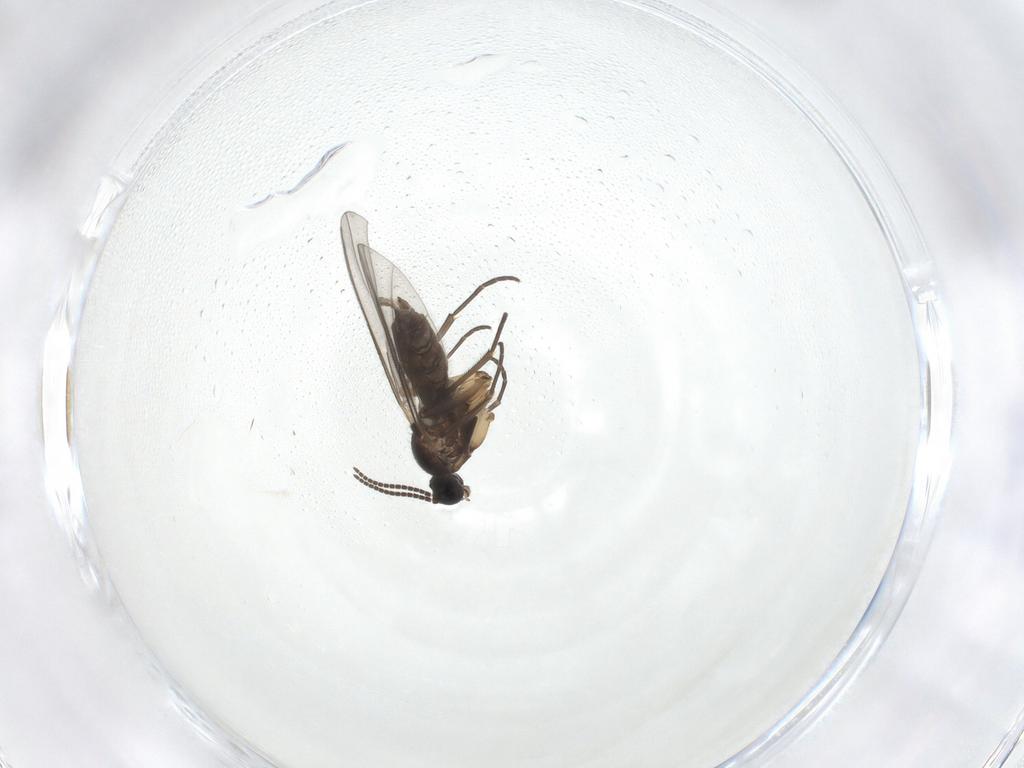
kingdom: Animalia
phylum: Arthropoda
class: Insecta
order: Diptera
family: Sciaridae
